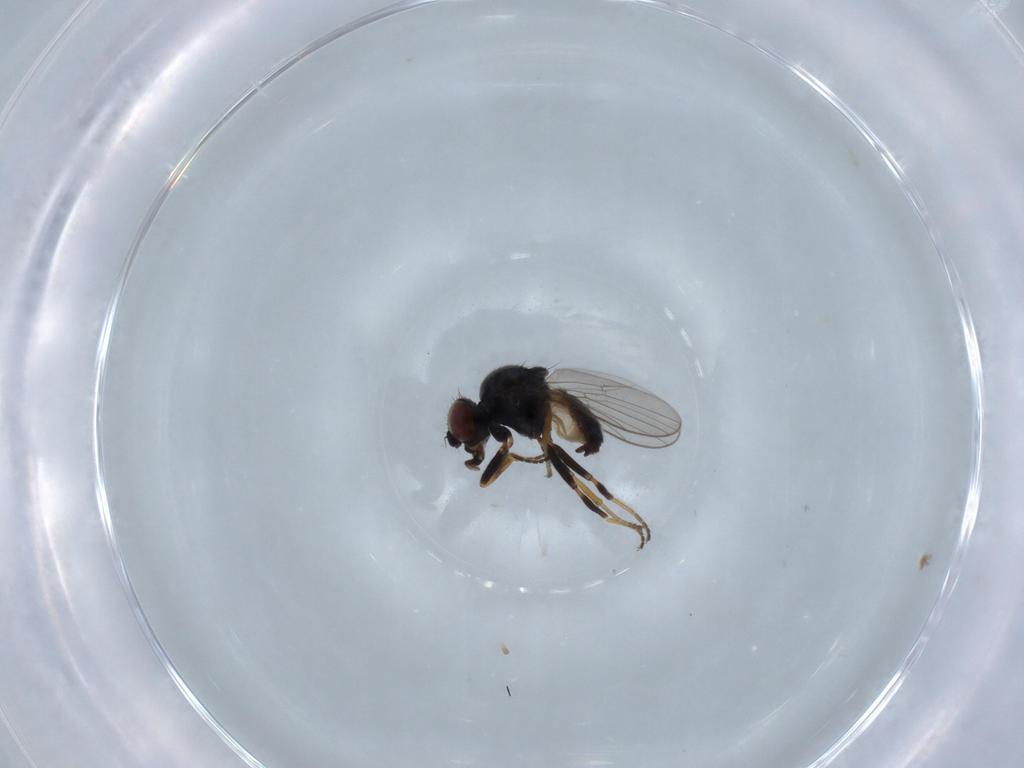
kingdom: Animalia
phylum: Arthropoda
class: Insecta
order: Diptera
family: Chloropidae
